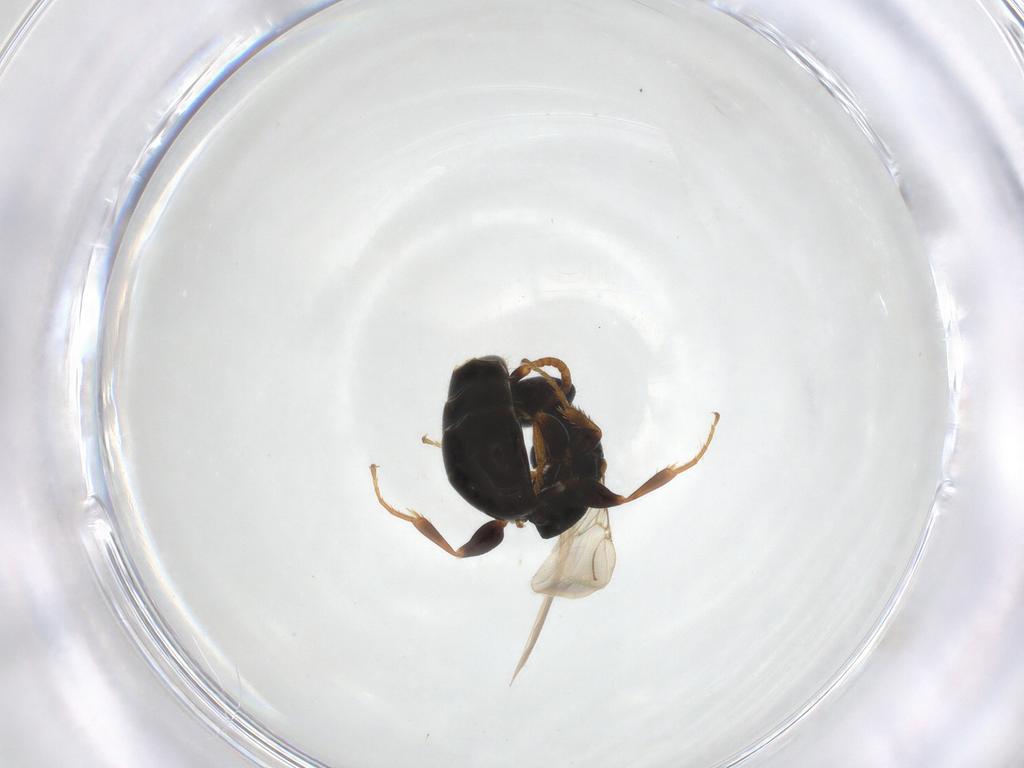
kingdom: Animalia
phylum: Arthropoda
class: Insecta
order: Hymenoptera
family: Bethylidae
